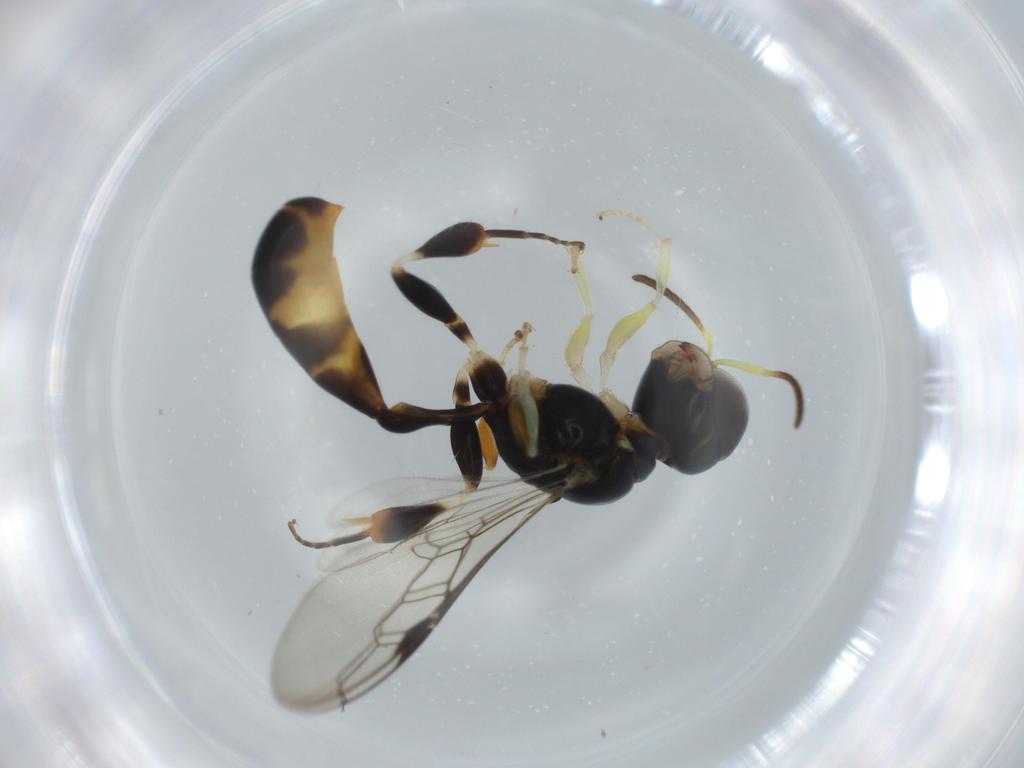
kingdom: Animalia
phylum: Arthropoda
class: Insecta
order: Hymenoptera
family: Crabronidae
